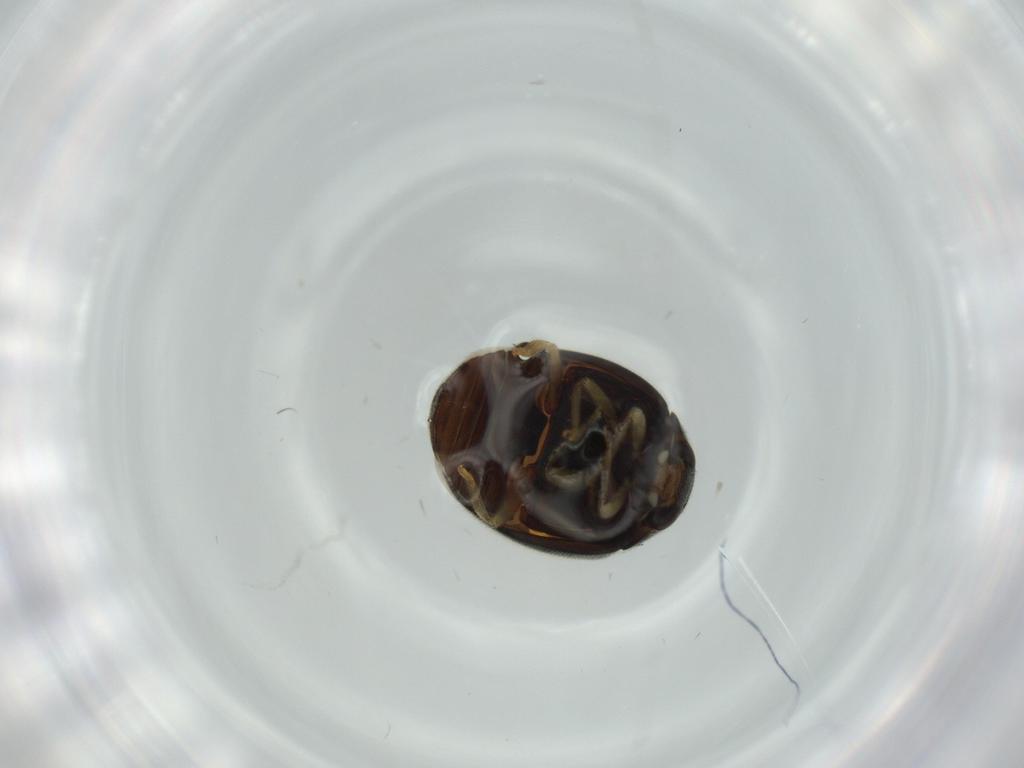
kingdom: Animalia
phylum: Arthropoda
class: Insecta
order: Coleoptera
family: Coccinellidae
